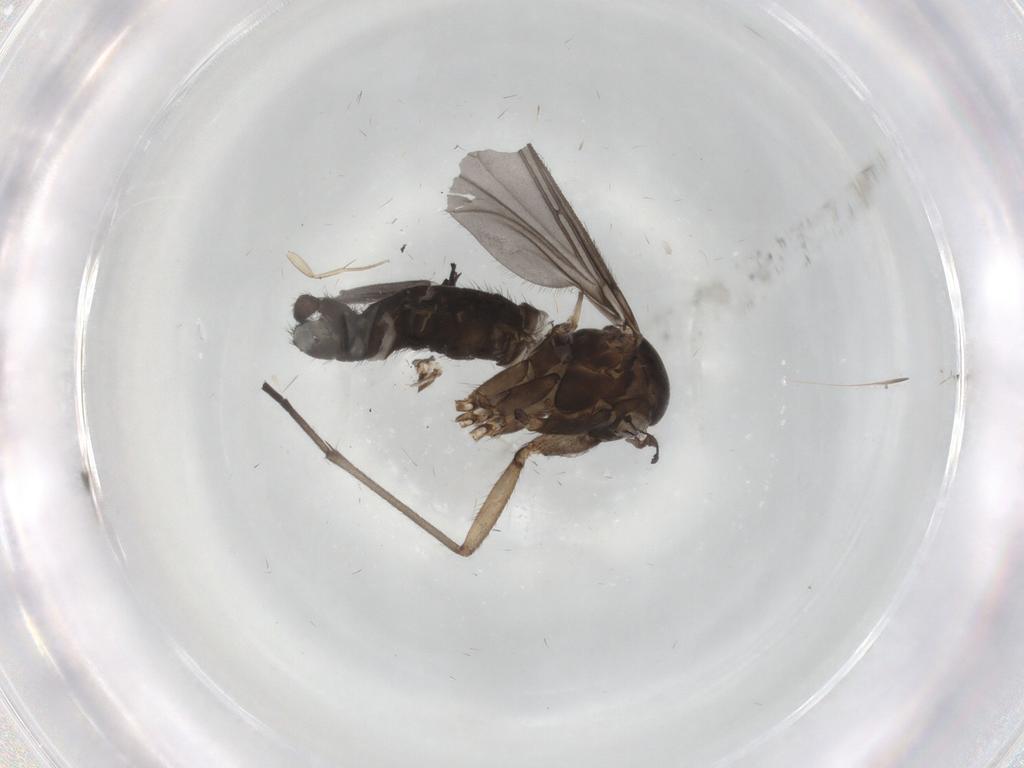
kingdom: Animalia
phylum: Arthropoda
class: Insecta
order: Diptera
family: Sciaridae
